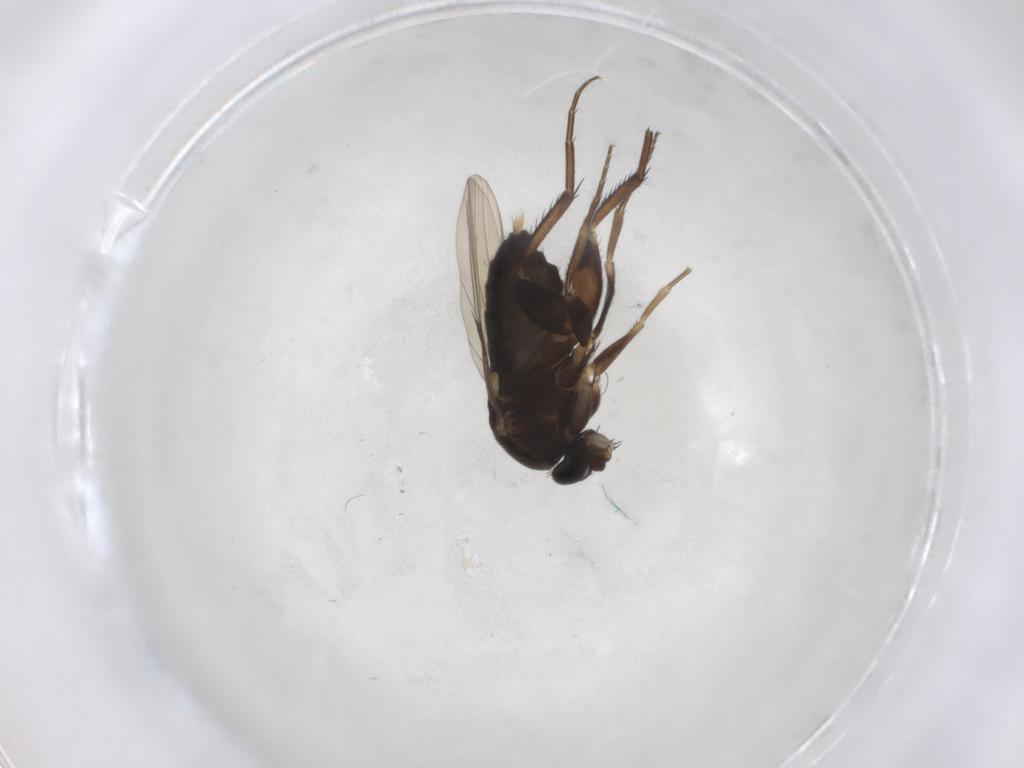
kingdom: Animalia
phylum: Arthropoda
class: Insecta
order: Diptera
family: Phoridae
